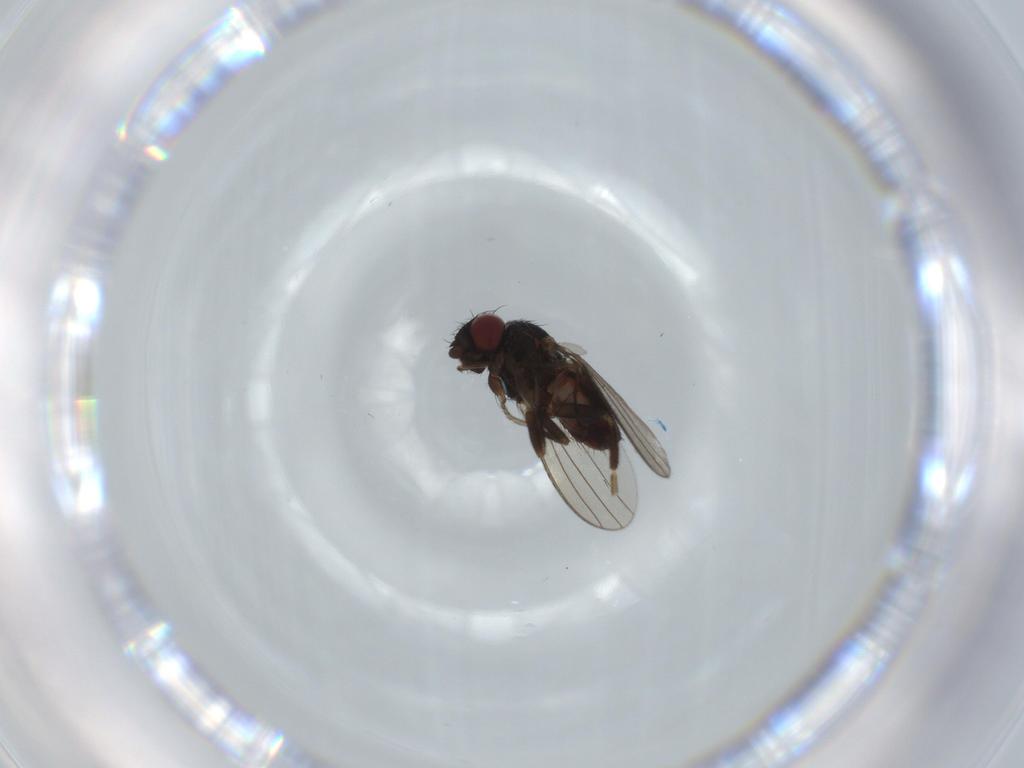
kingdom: Animalia
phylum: Arthropoda
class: Insecta
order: Diptera
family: Milichiidae
